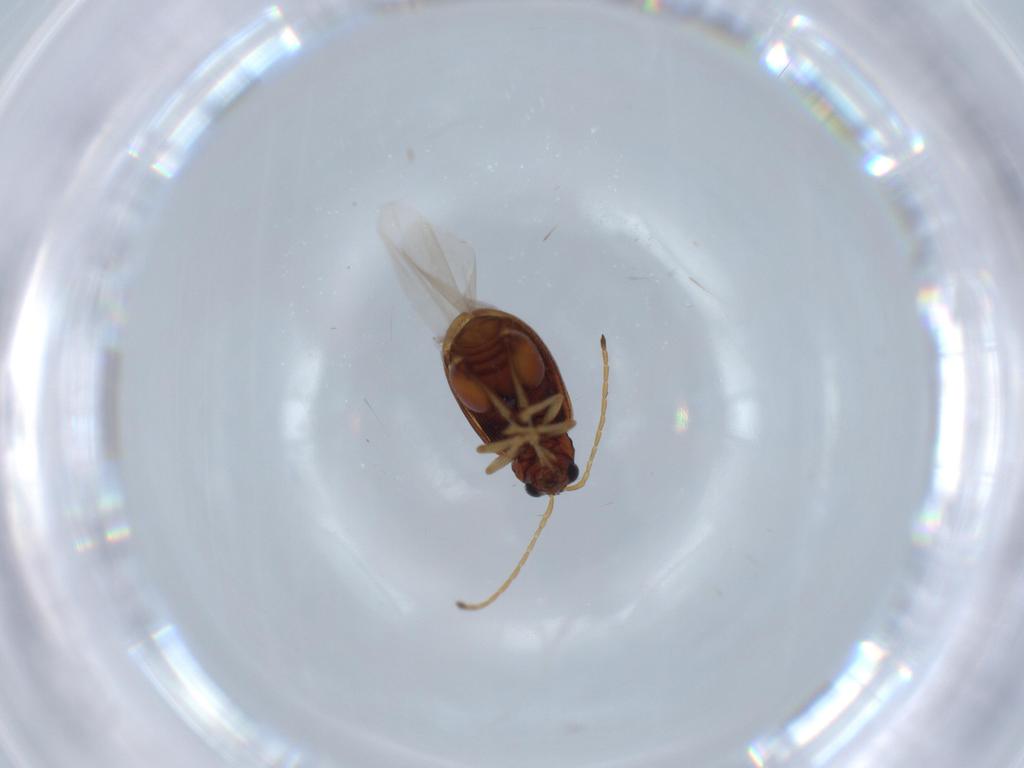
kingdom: Animalia
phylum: Arthropoda
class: Insecta
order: Coleoptera
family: Chrysomelidae
